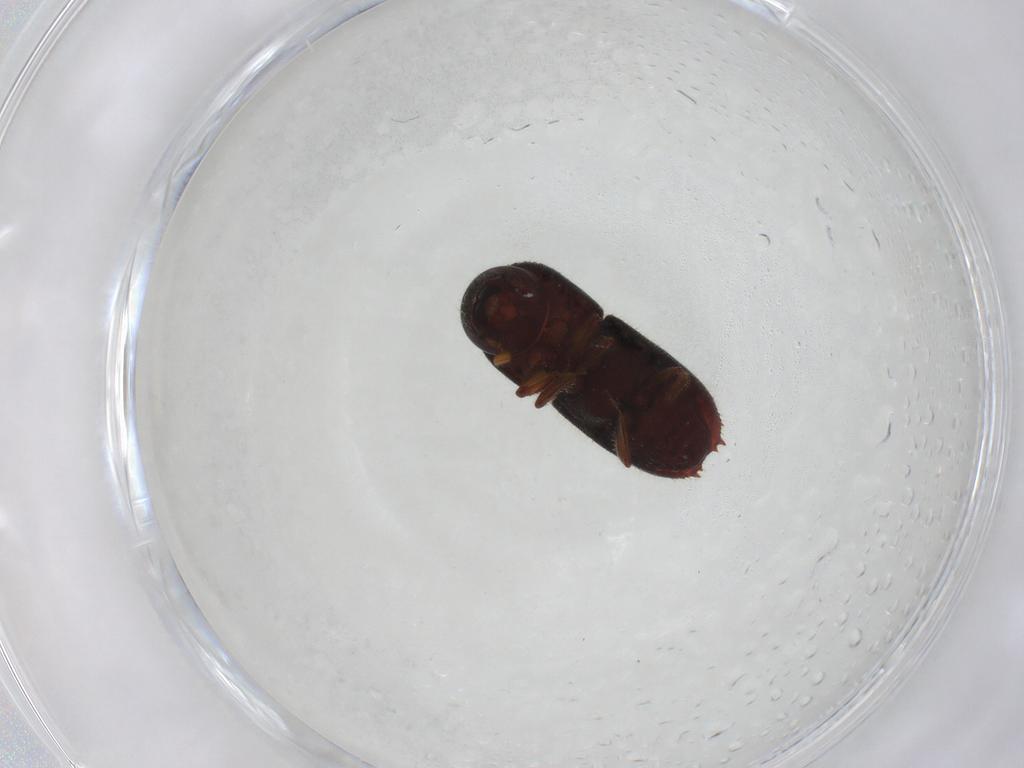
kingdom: Animalia
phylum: Arthropoda
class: Insecta
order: Coleoptera
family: Curculionidae
